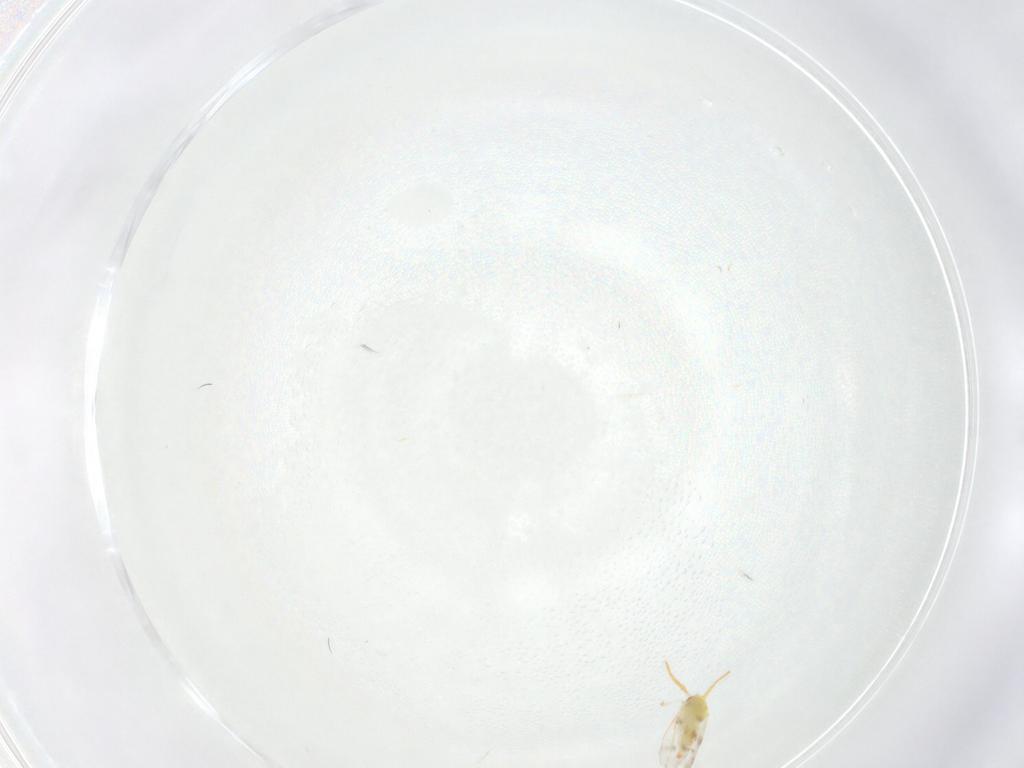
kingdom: Animalia
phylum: Arthropoda
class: Insecta
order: Hemiptera
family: Aleyrodidae
